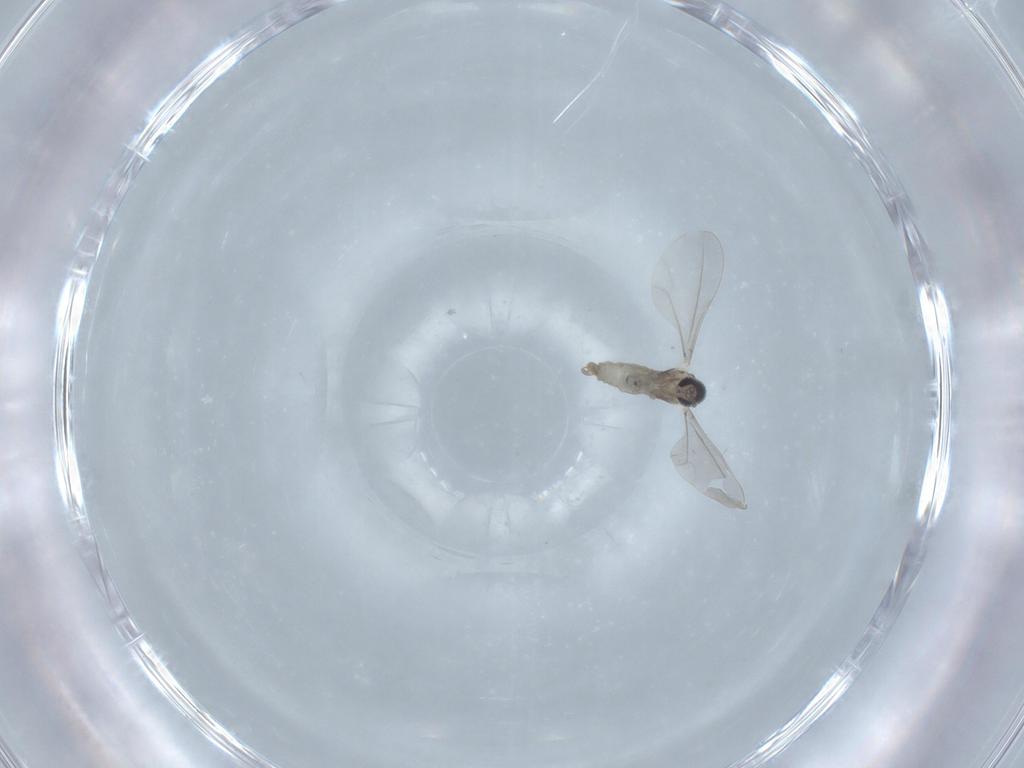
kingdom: Animalia
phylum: Arthropoda
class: Insecta
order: Diptera
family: Cecidomyiidae
